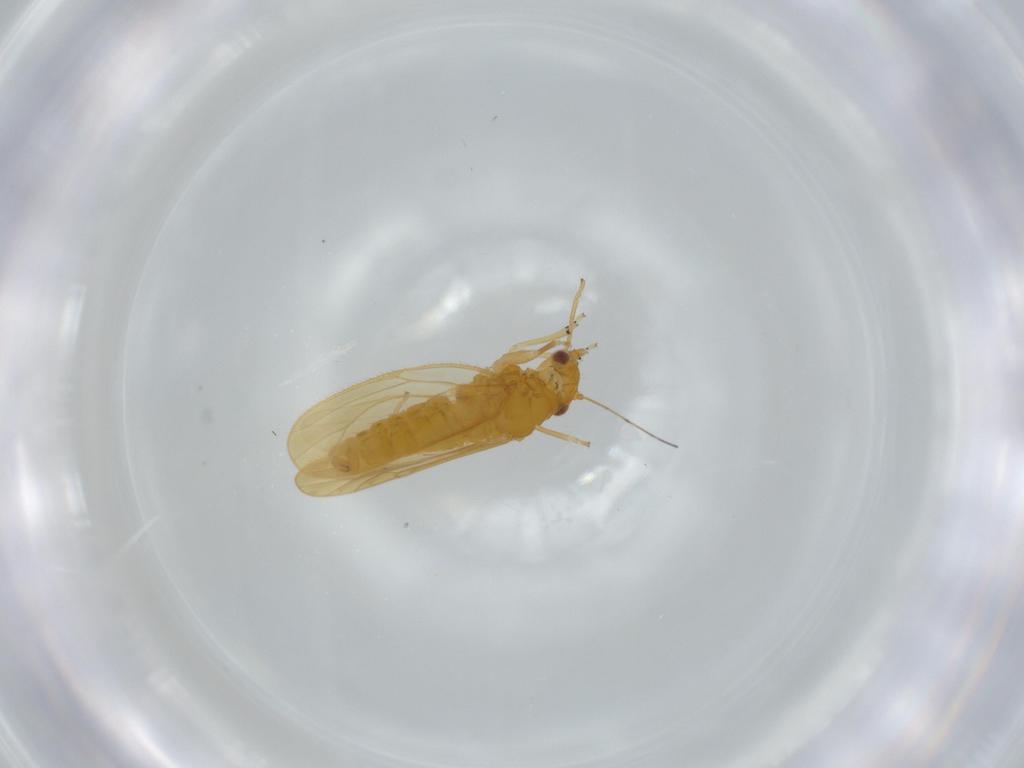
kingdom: Animalia
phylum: Arthropoda
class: Insecta
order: Hemiptera
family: Psyllidae
